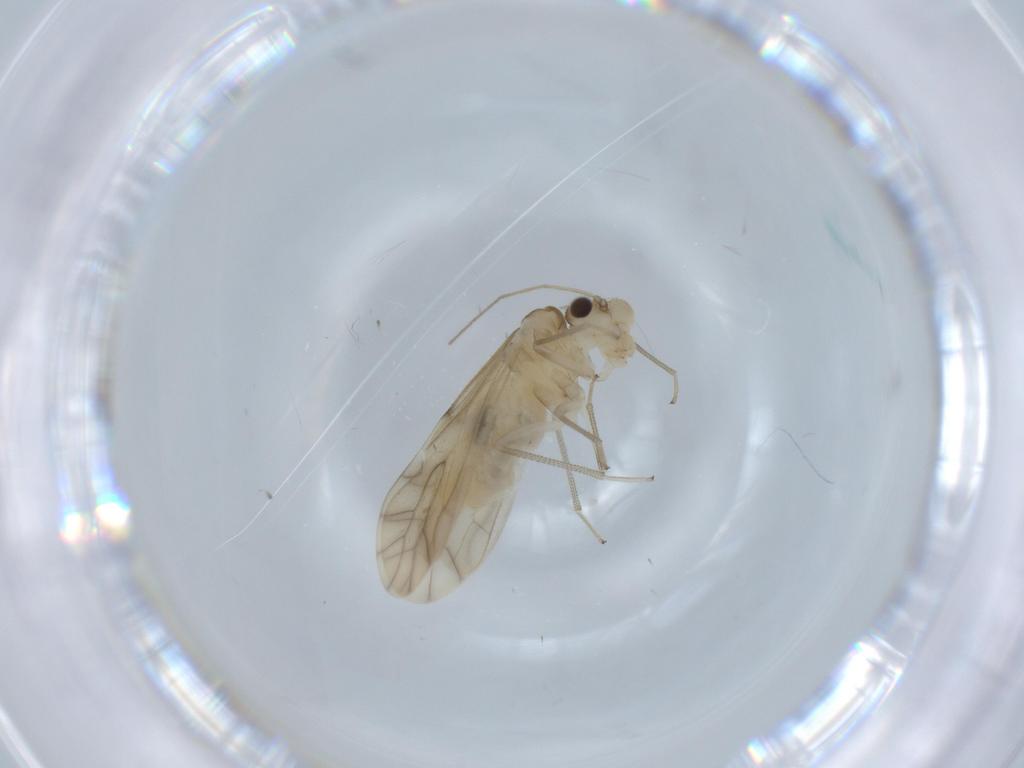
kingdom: Animalia
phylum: Arthropoda
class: Insecta
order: Psocodea
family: Caeciliusidae
